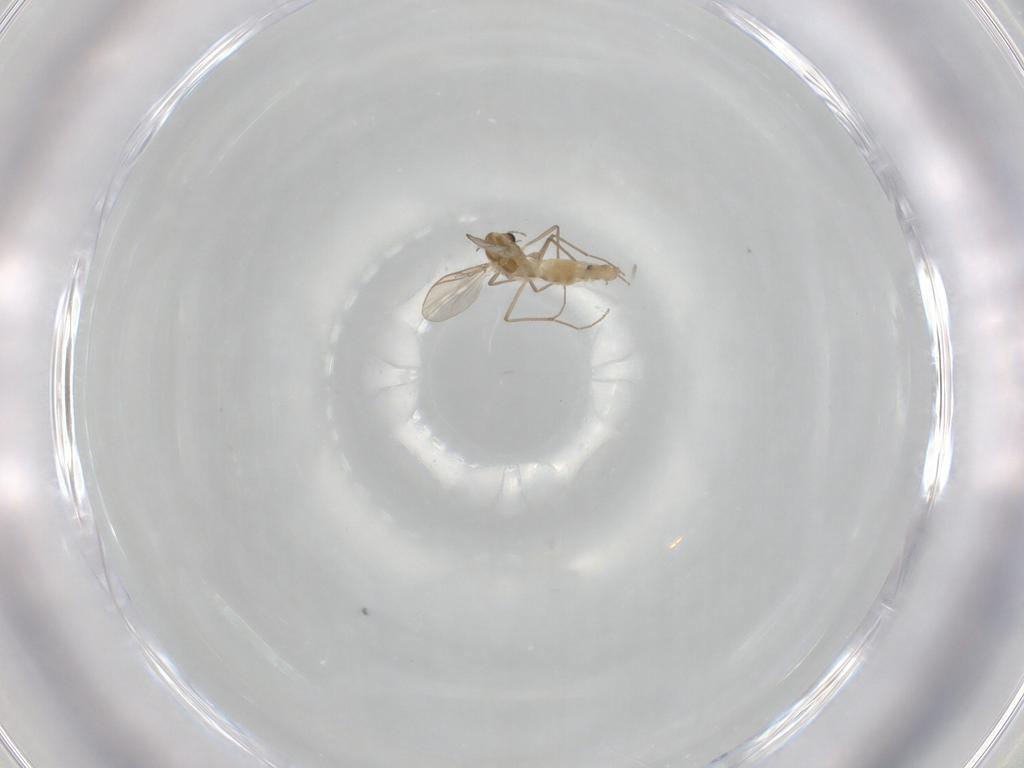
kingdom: Animalia
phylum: Arthropoda
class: Insecta
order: Diptera
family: Chironomidae
